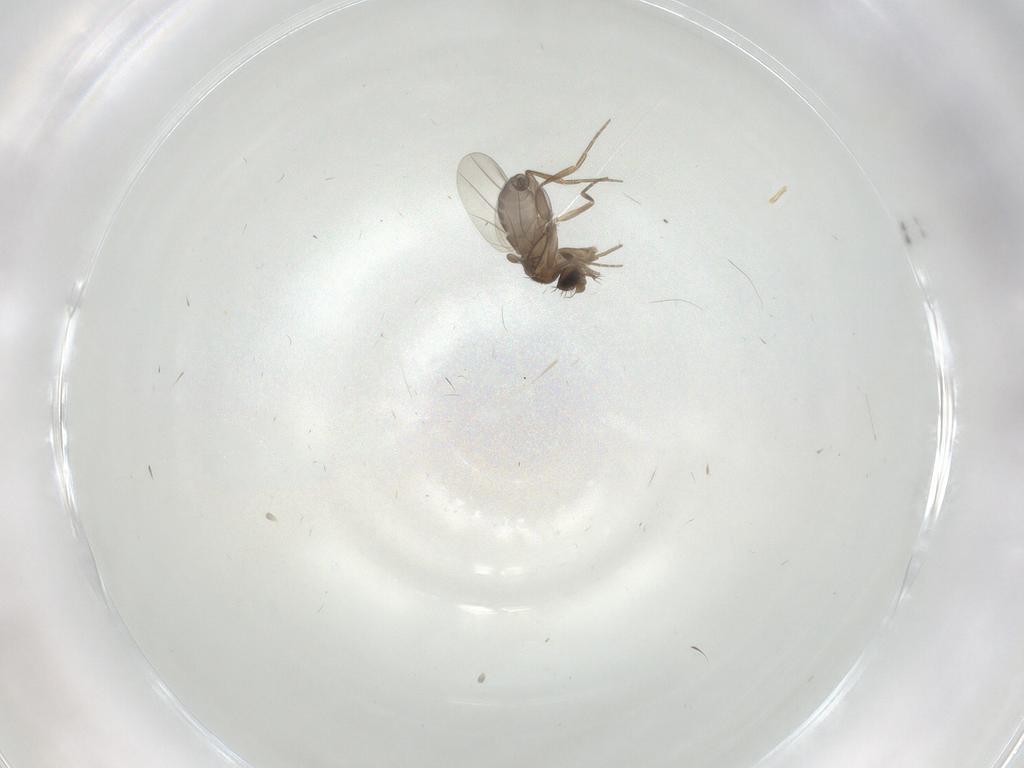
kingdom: Animalia
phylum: Arthropoda
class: Insecta
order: Diptera
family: Phoridae
